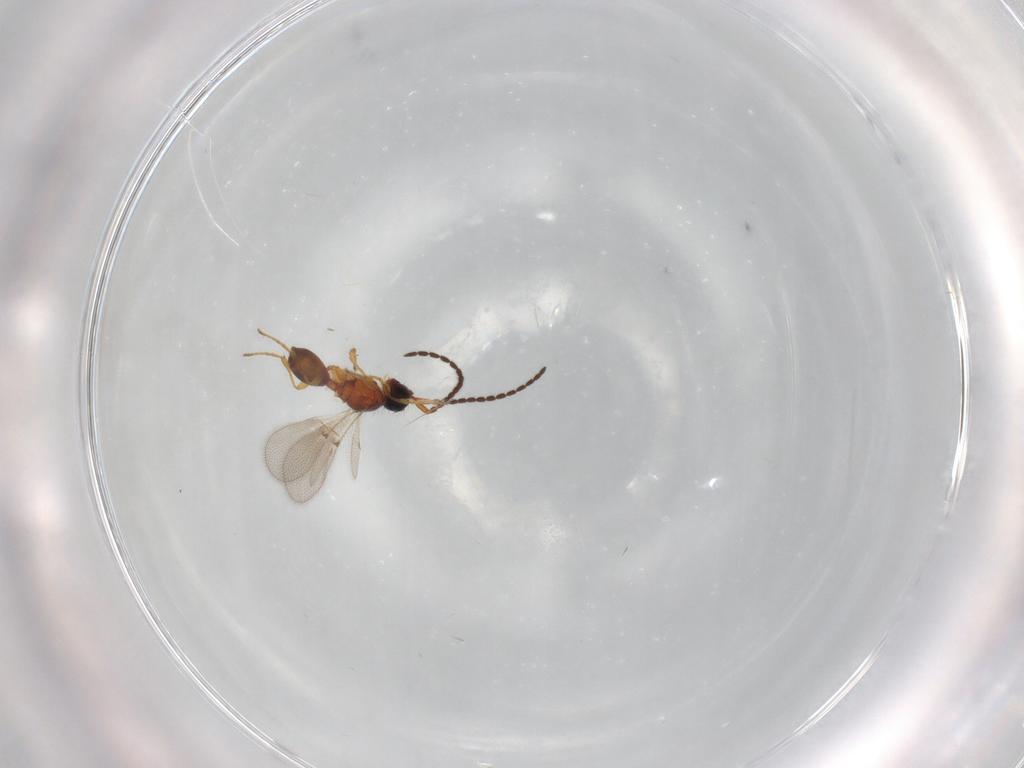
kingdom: Animalia
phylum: Arthropoda
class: Insecta
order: Hymenoptera
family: Diapriidae
